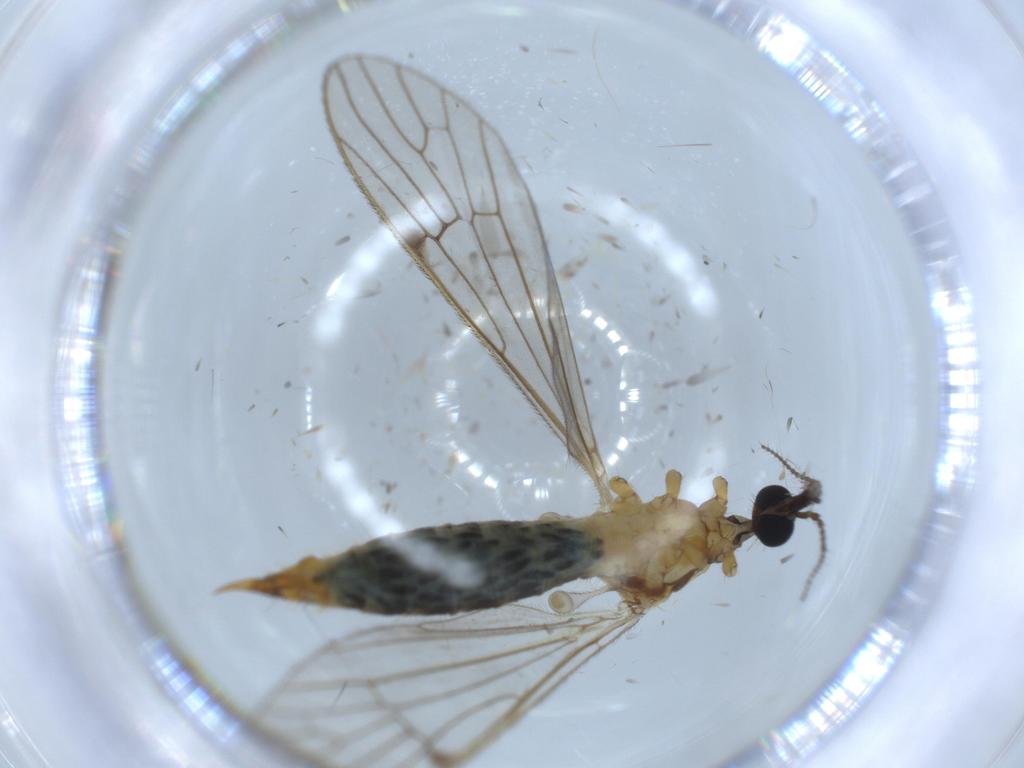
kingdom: Animalia
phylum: Arthropoda
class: Insecta
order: Diptera
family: Limoniidae
